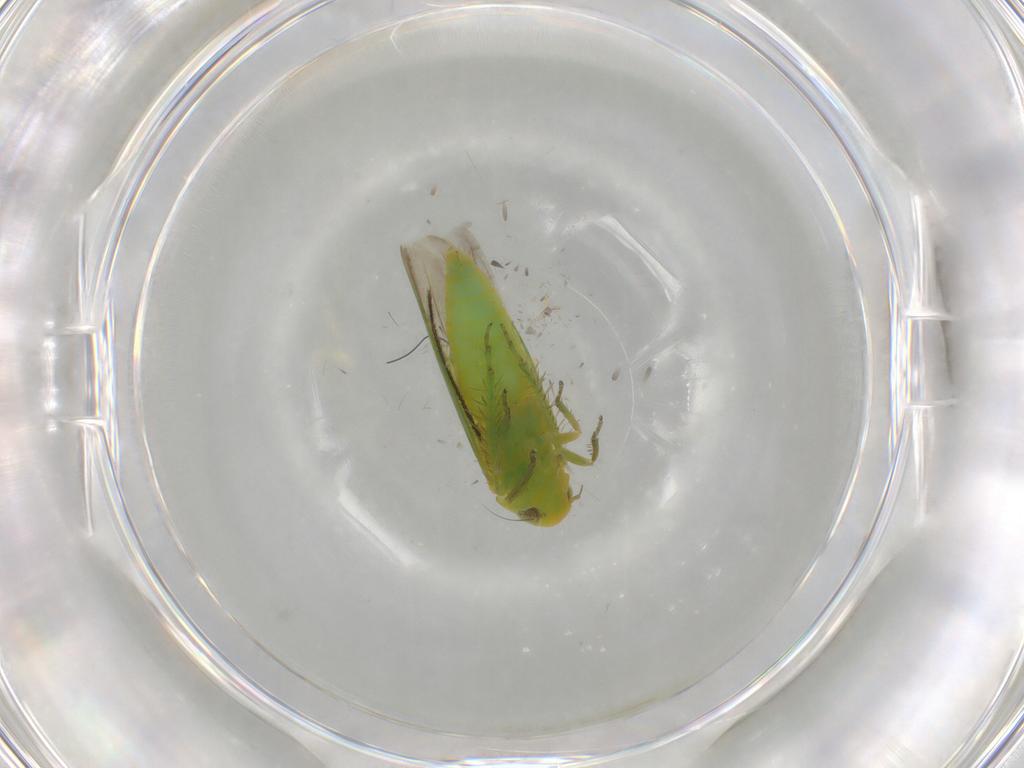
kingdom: Animalia
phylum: Arthropoda
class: Insecta
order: Hemiptera
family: Cicadellidae
